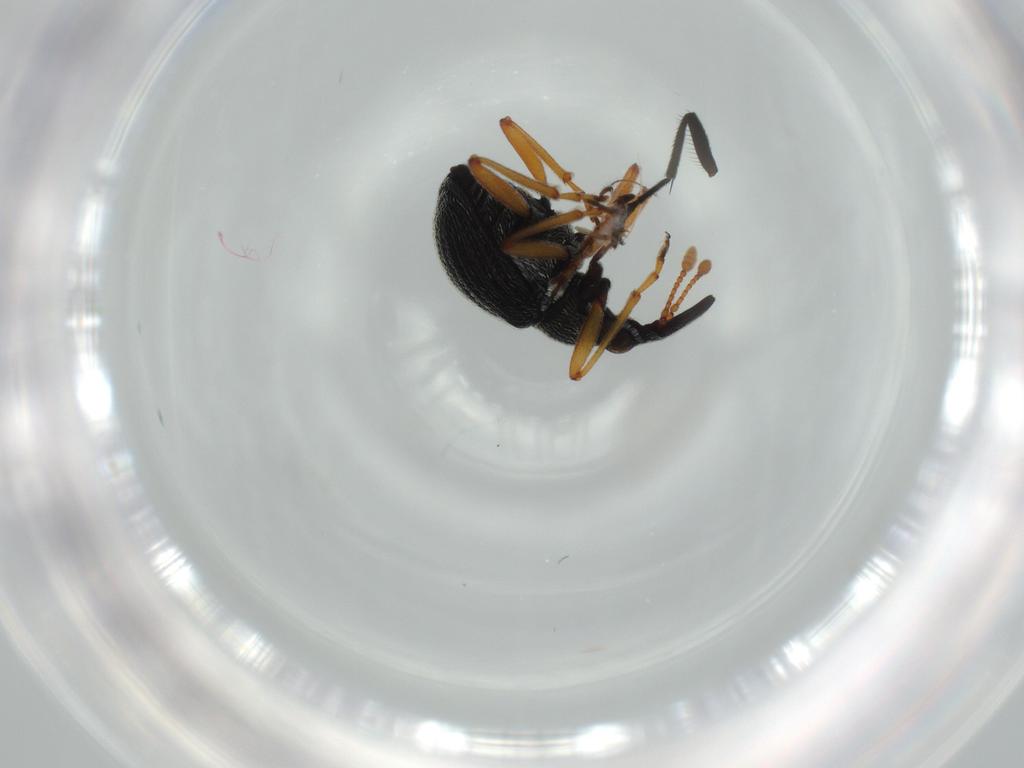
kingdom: Animalia
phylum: Arthropoda
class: Insecta
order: Coleoptera
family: Brentidae
